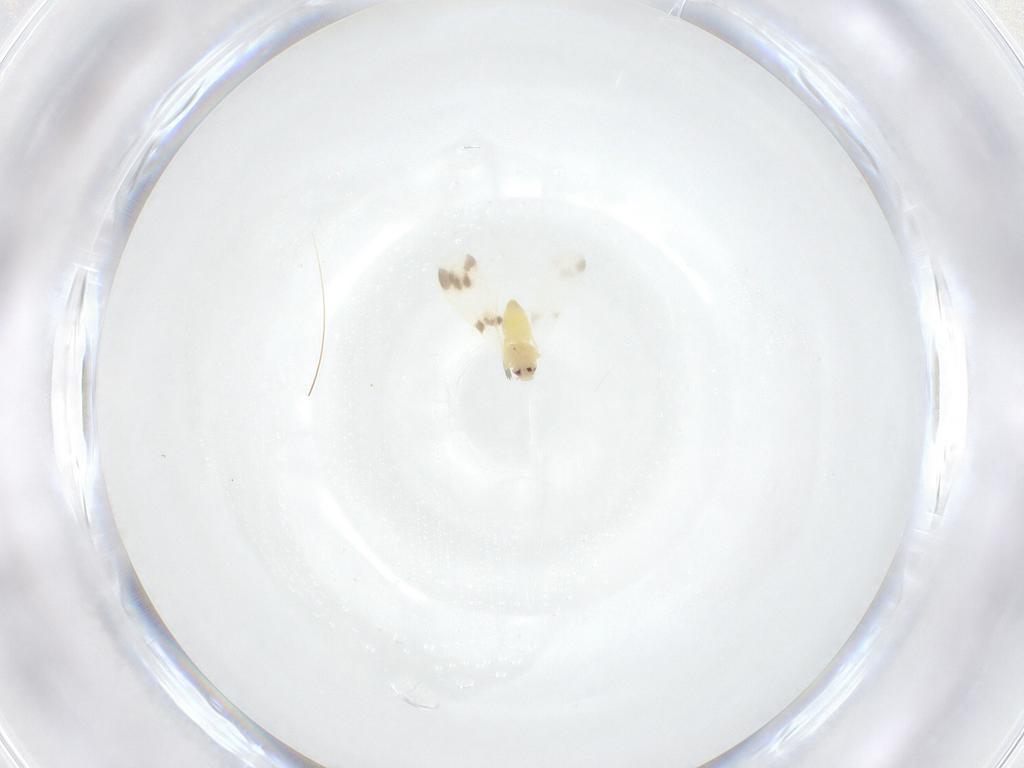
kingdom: Animalia
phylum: Arthropoda
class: Insecta
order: Hemiptera
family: Aleyrodidae
